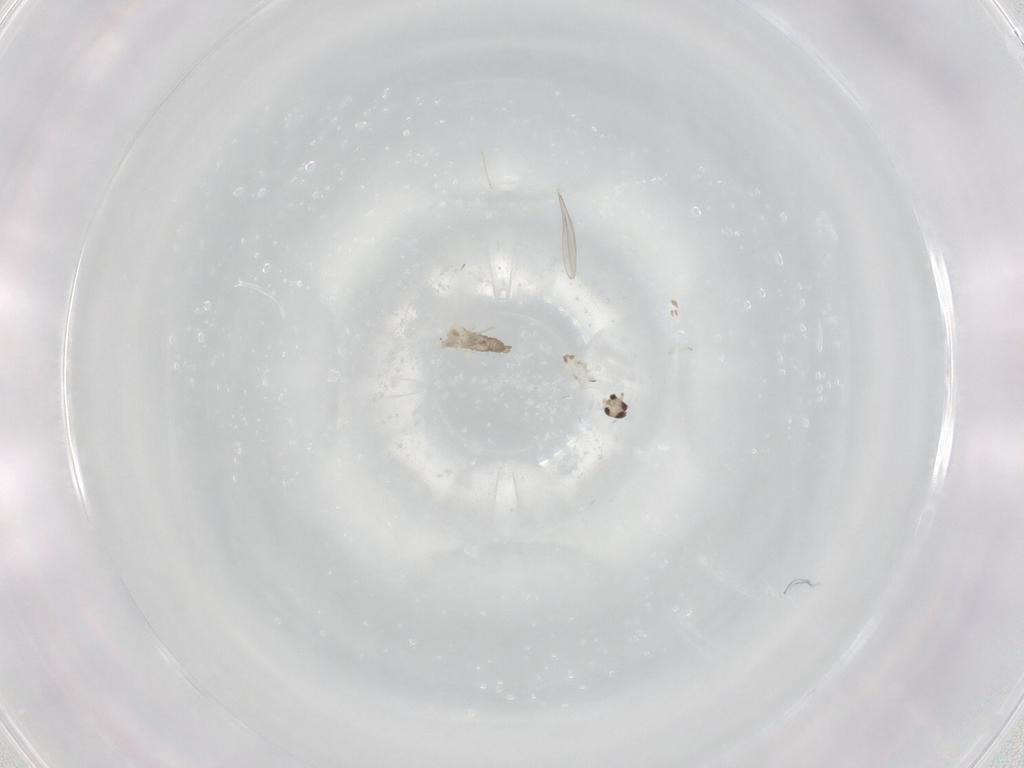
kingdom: Animalia
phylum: Arthropoda
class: Insecta
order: Diptera
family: Cecidomyiidae
